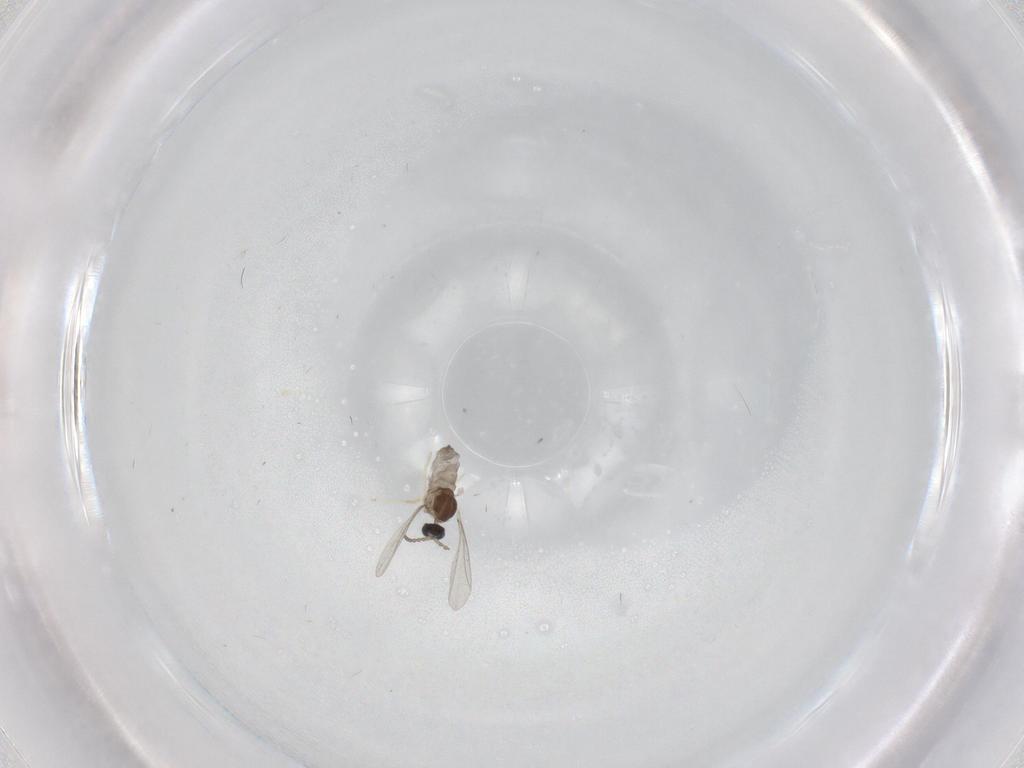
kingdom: Animalia
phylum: Arthropoda
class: Insecta
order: Diptera
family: Cecidomyiidae
